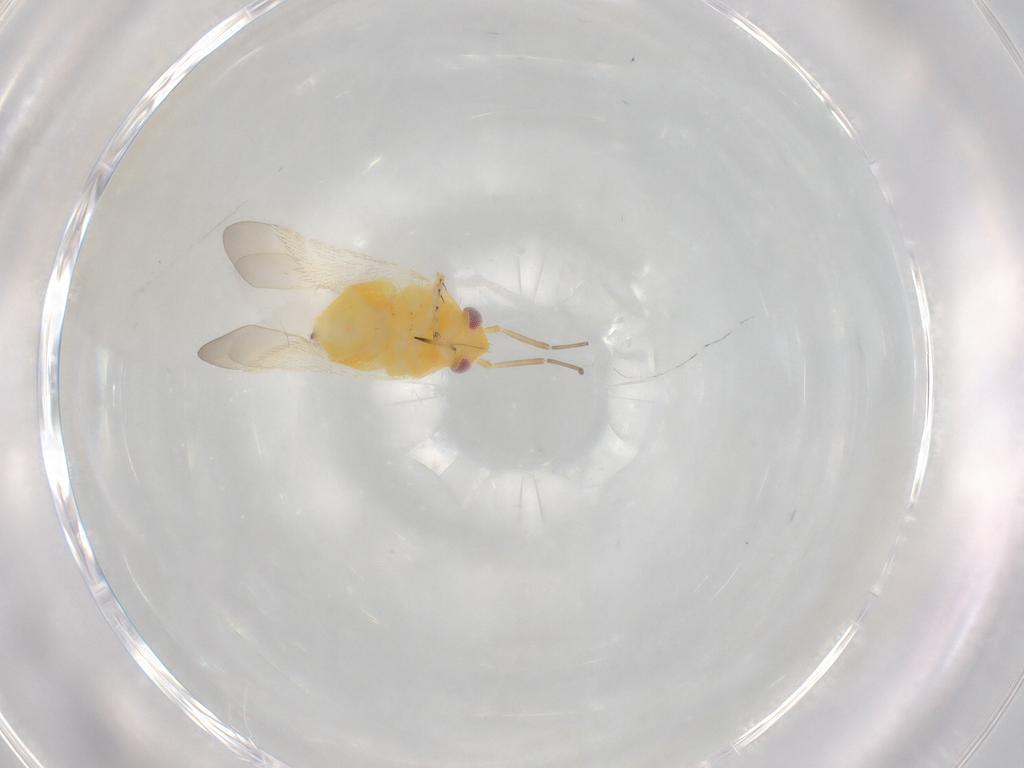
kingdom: Animalia
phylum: Arthropoda
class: Insecta
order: Hemiptera
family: Miridae
